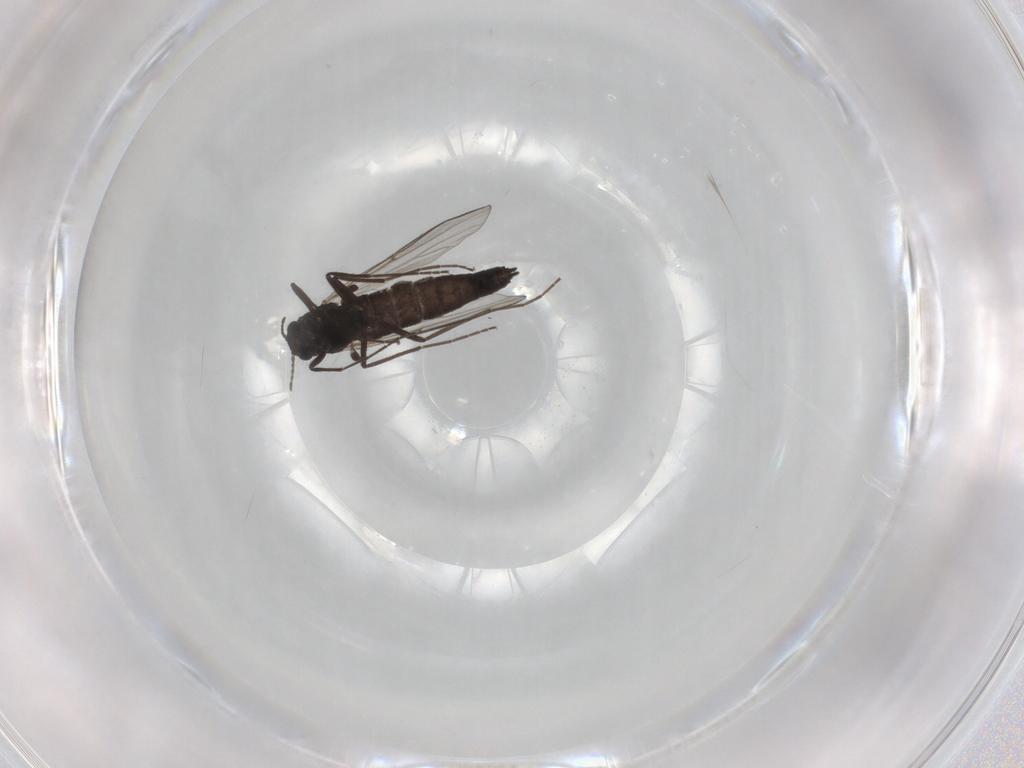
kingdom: Animalia
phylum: Arthropoda
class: Insecta
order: Diptera
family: Chironomidae
